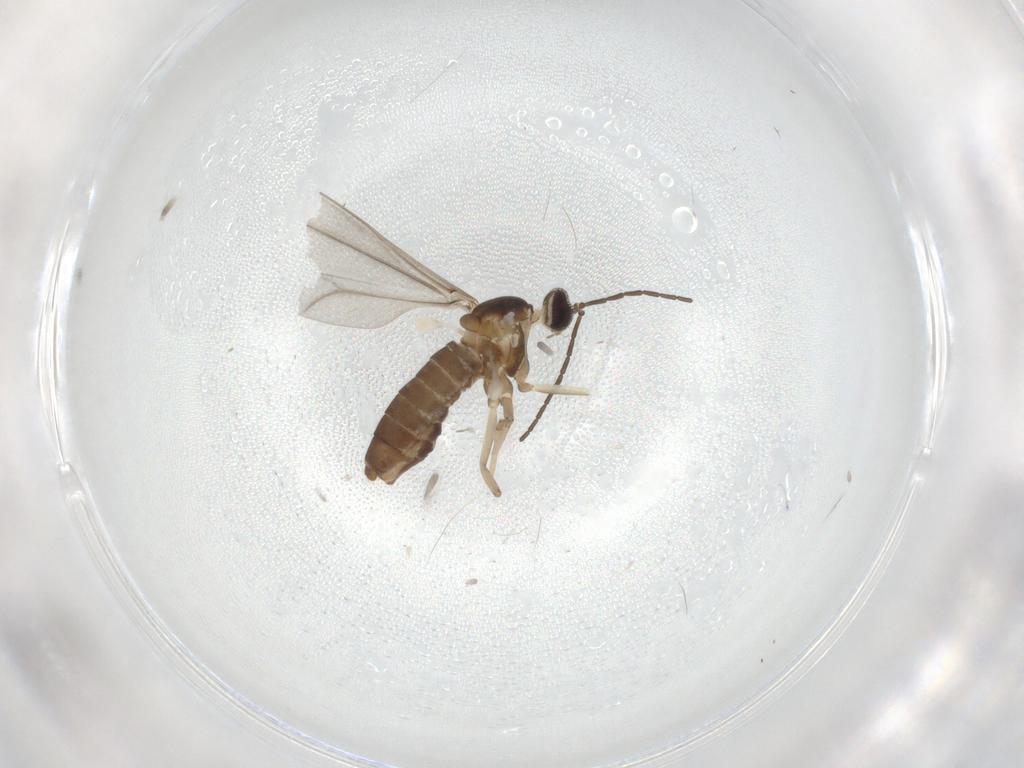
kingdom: Animalia
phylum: Arthropoda
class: Insecta
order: Diptera
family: Cecidomyiidae
